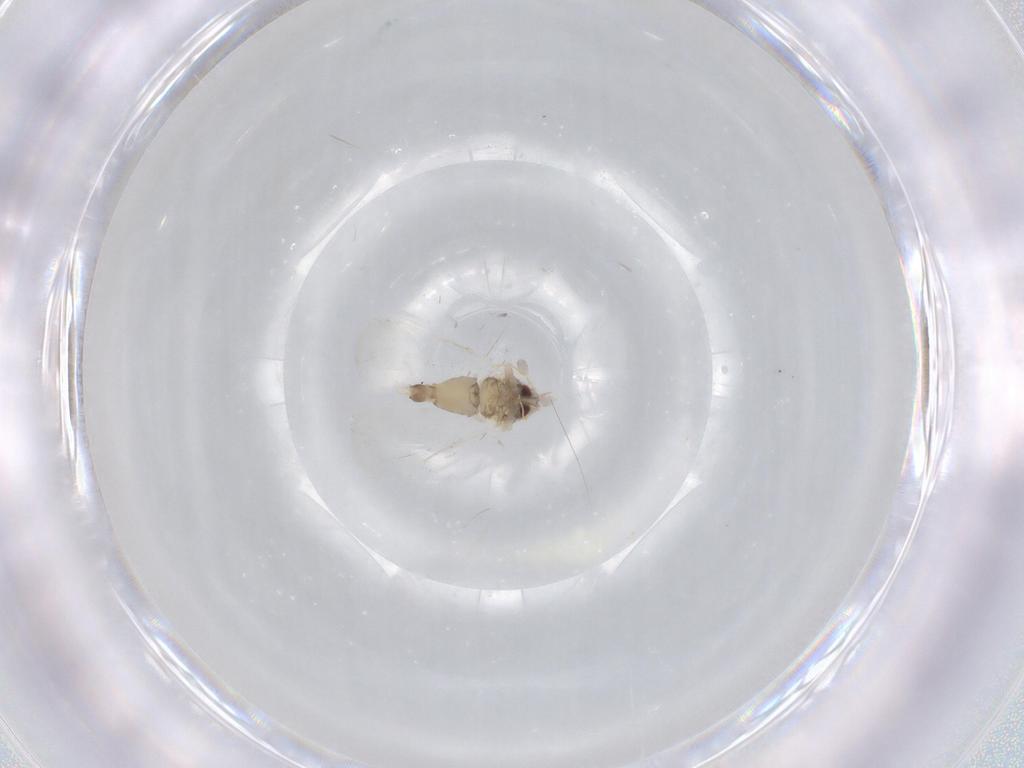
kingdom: Animalia
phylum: Arthropoda
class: Insecta
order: Hemiptera
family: Aleyrodidae
